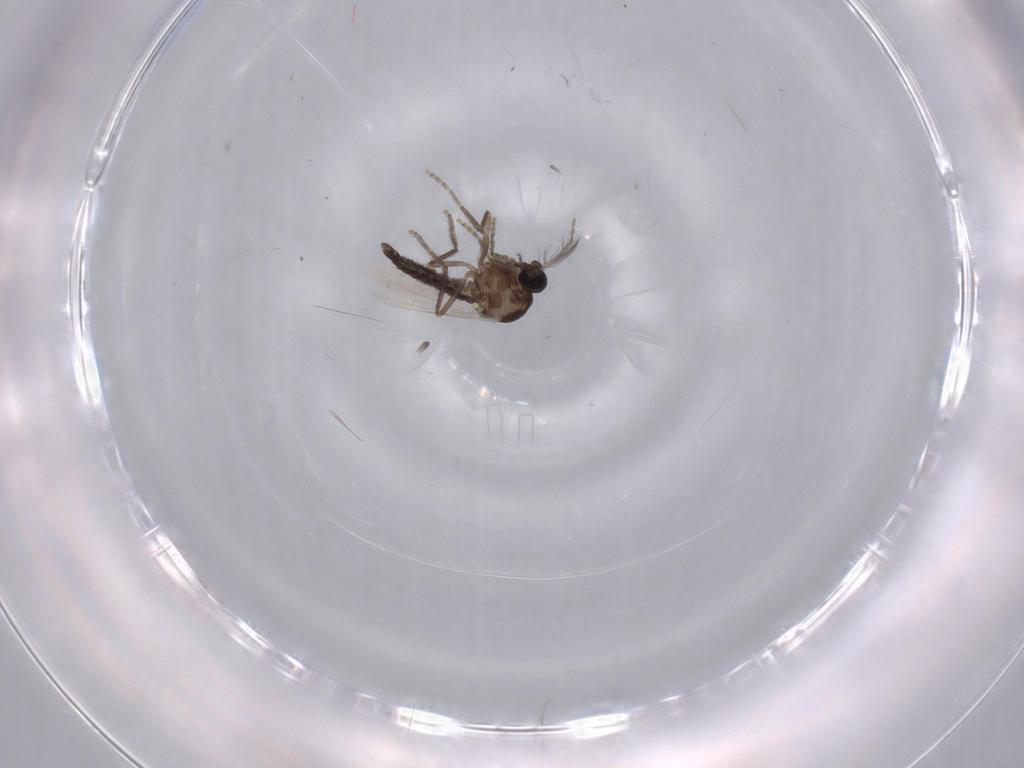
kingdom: Animalia
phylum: Arthropoda
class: Insecta
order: Diptera
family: Ceratopogonidae
